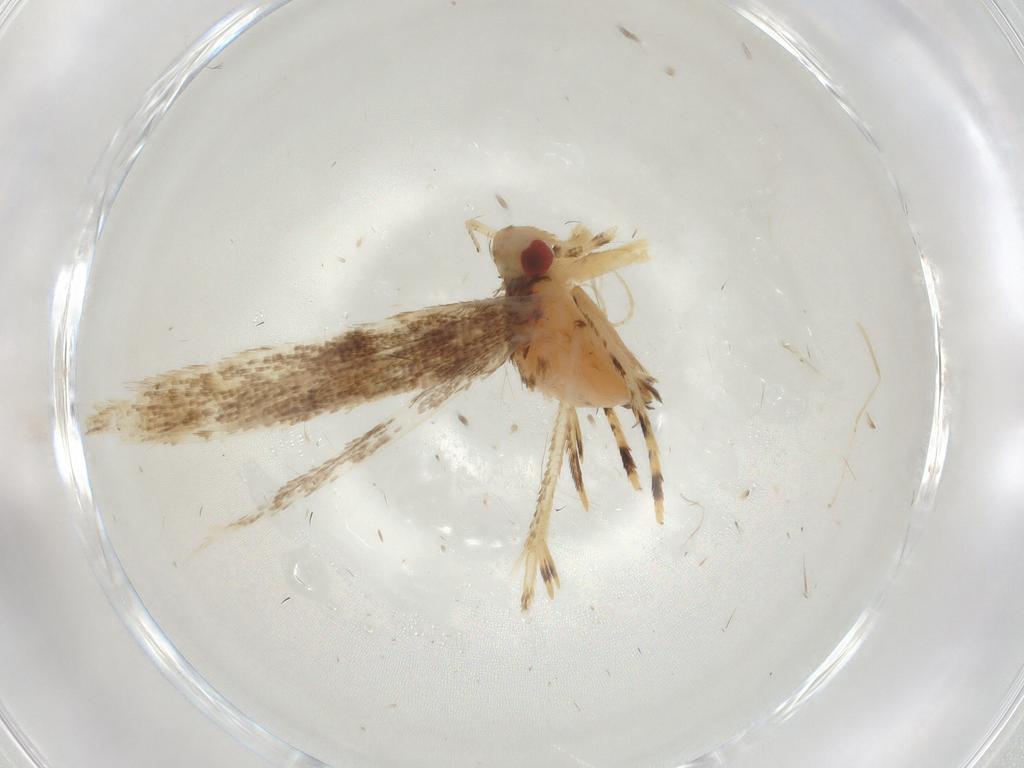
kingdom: Animalia
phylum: Arthropoda
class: Insecta
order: Lepidoptera
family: Cosmopterigidae
